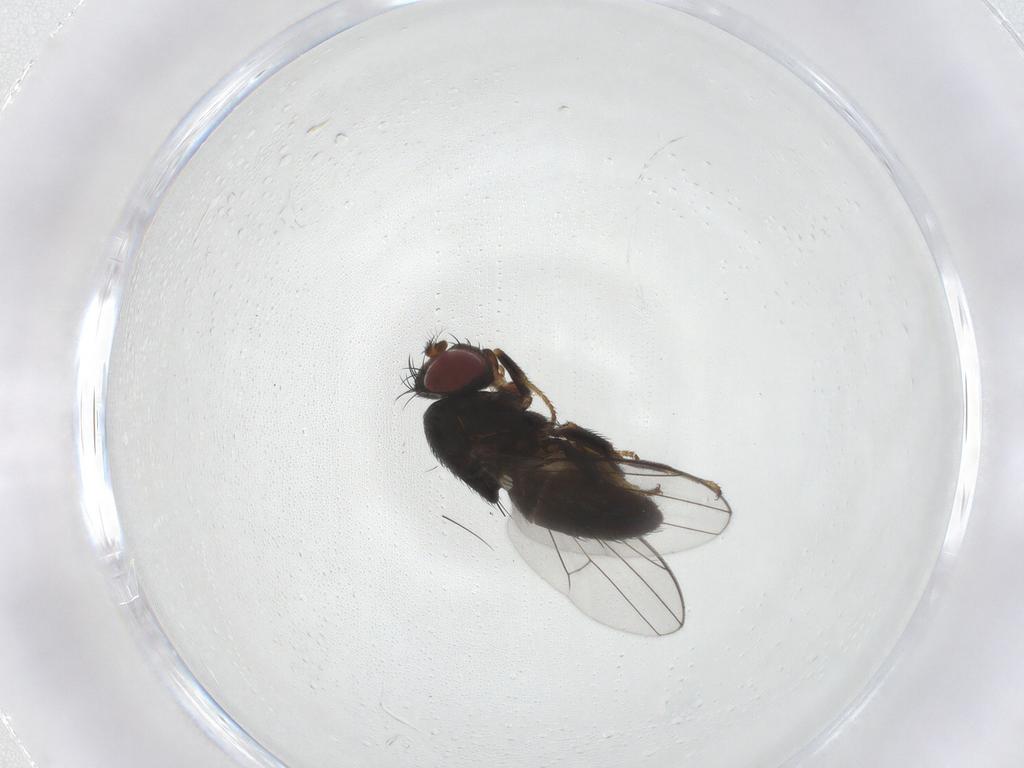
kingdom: Animalia
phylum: Arthropoda
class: Insecta
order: Diptera
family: Ephydridae
